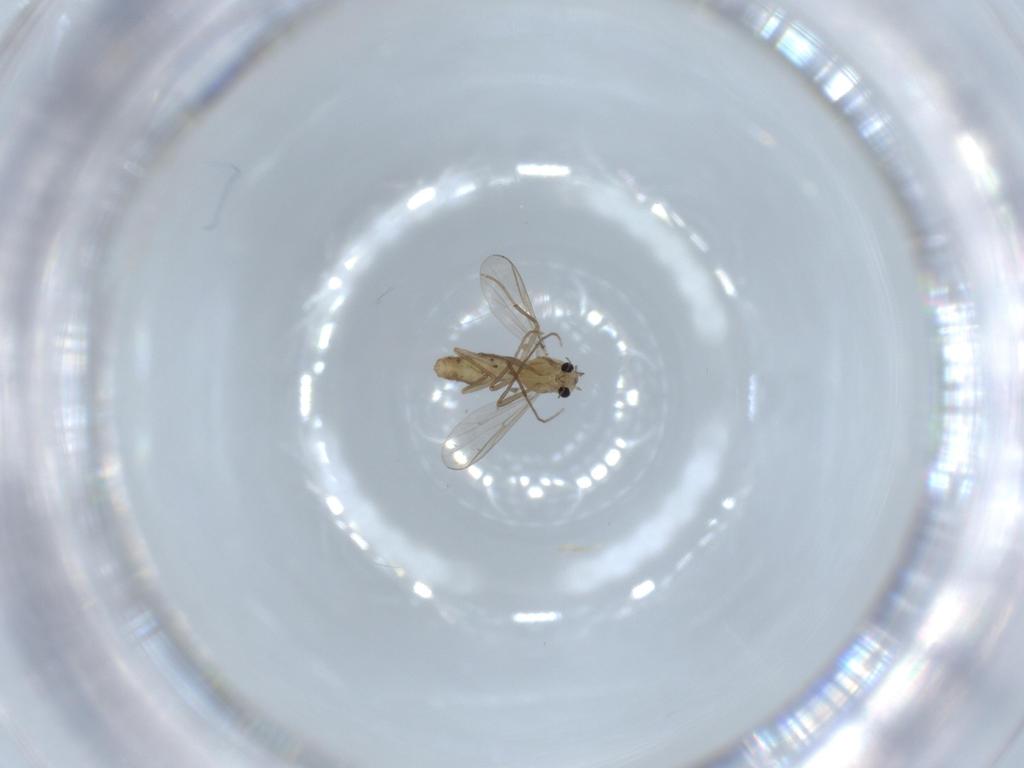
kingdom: Animalia
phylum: Arthropoda
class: Insecta
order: Diptera
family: Chironomidae
